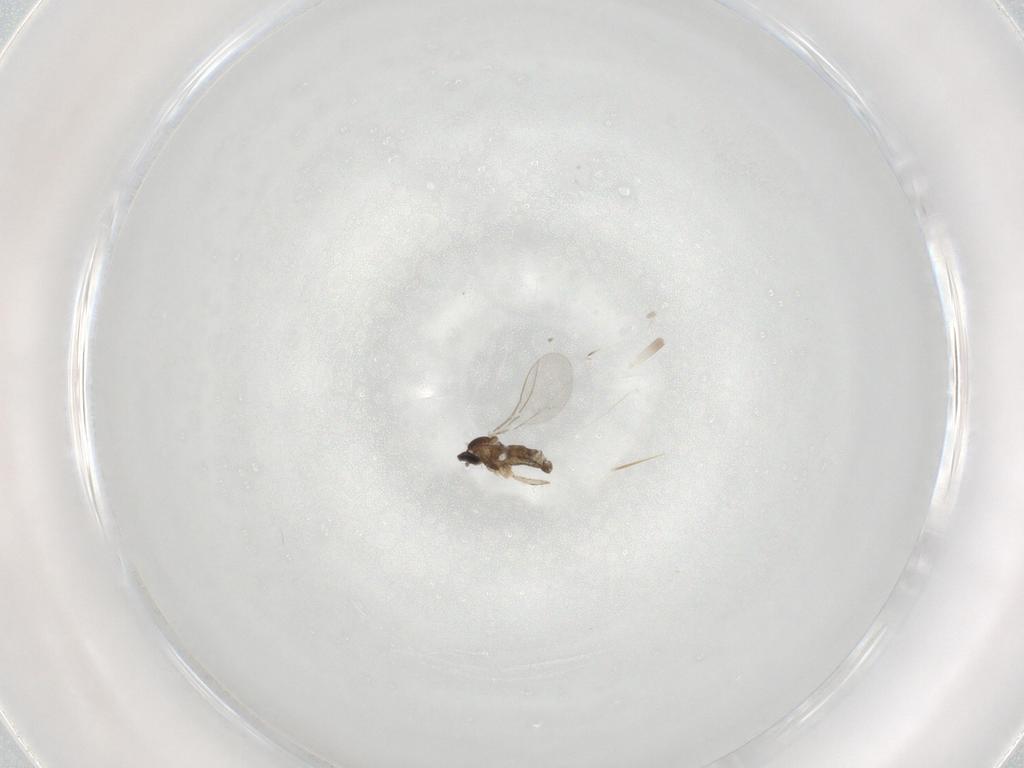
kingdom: Animalia
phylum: Arthropoda
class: Insecta
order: Diptera
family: Cecidomyiidae
